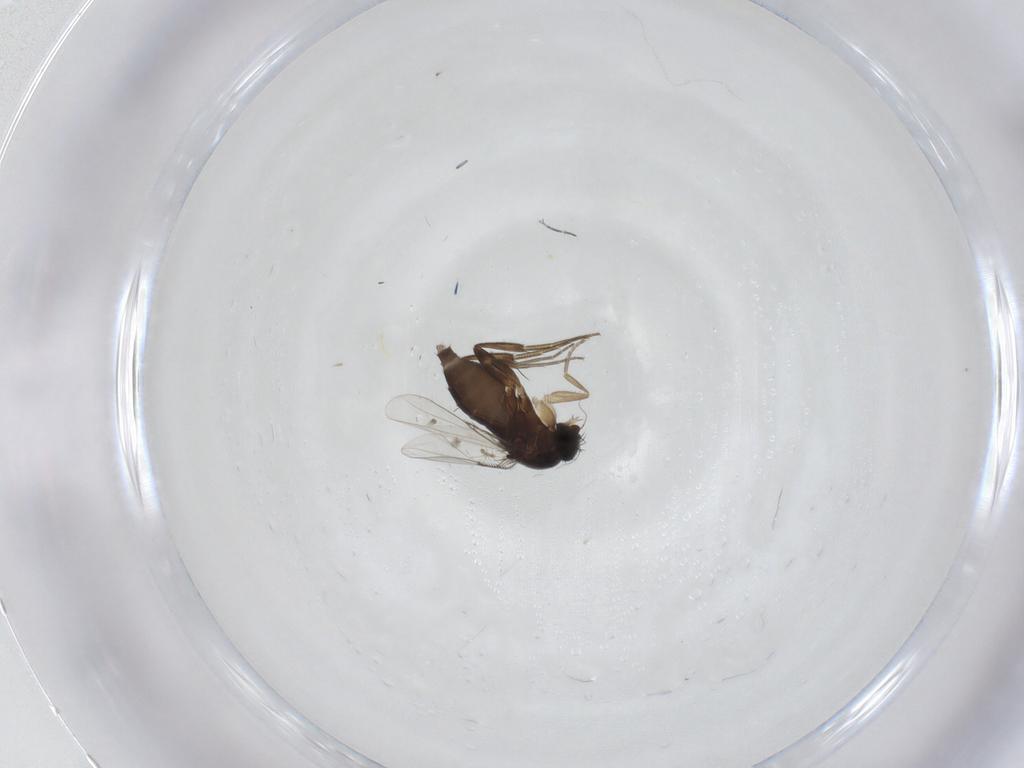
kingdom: Animalia
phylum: Arthropoda
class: Insecta
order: Diptera
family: Phoridae
